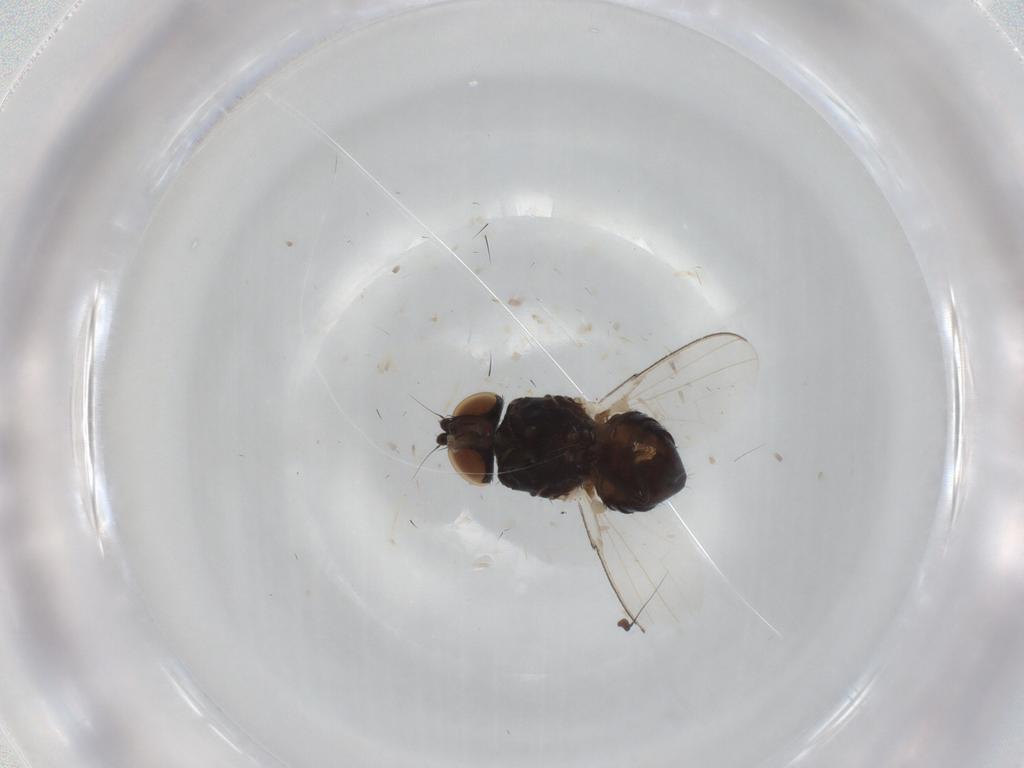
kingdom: Animalia
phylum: Arthropoda
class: Insecta
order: Diptera
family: Milichiidae
